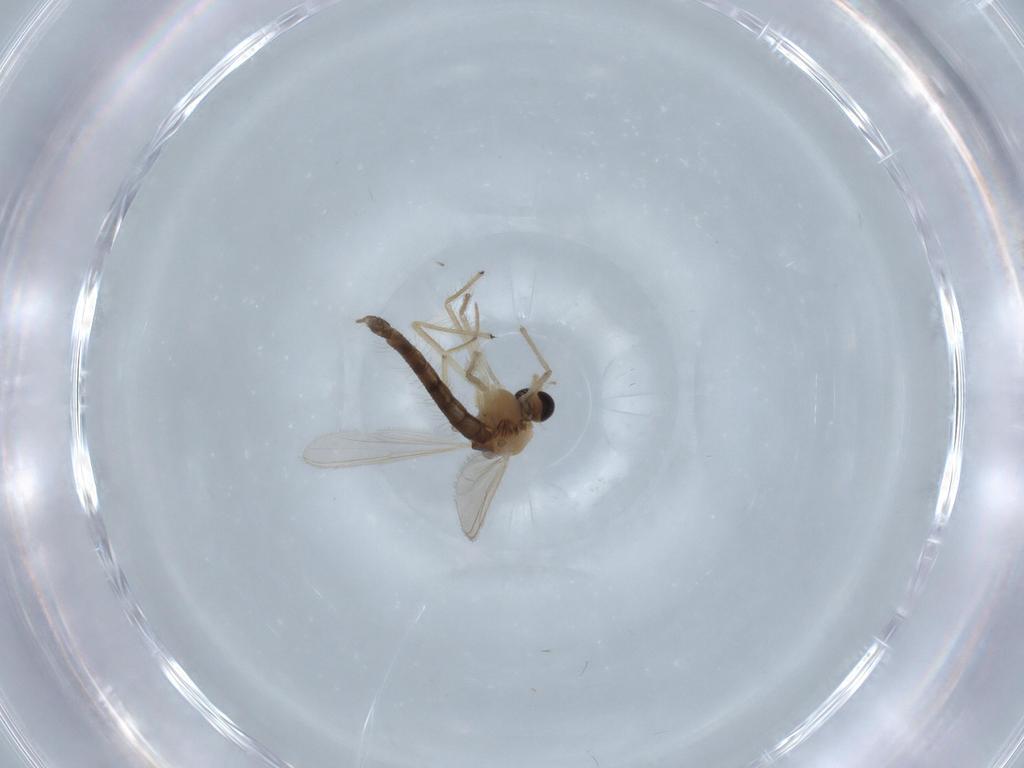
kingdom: Animalia
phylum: Arthropoda
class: Insecta
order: Diptera
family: Chironomidae
